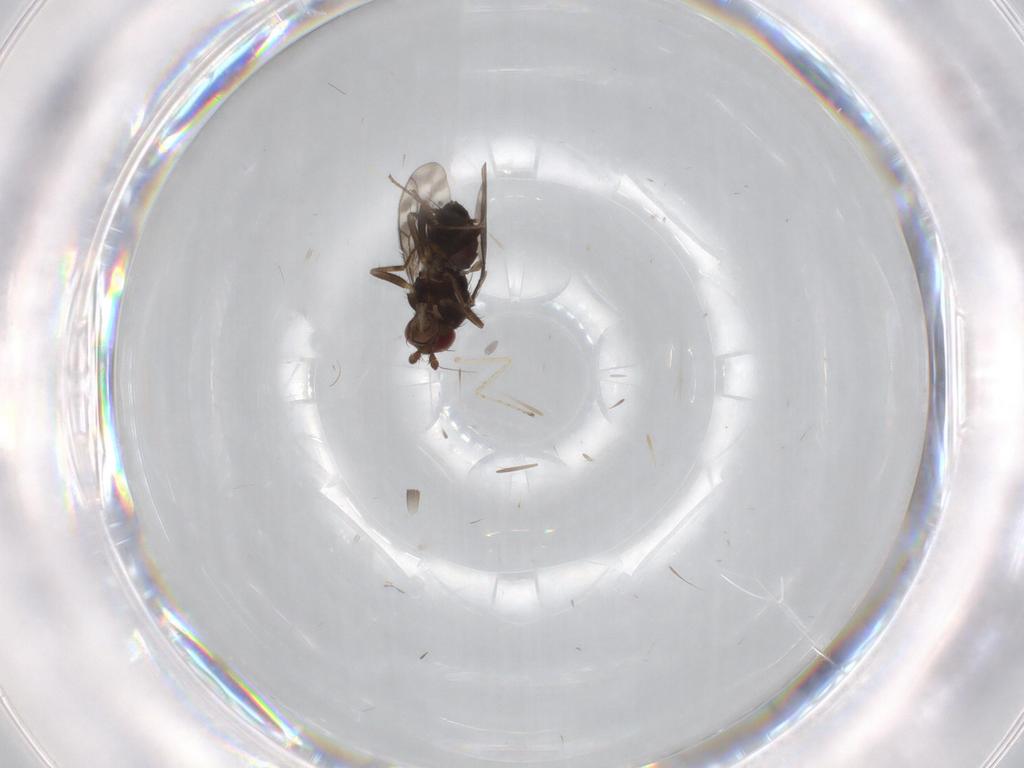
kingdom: Animalia
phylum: Arthropoda
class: Insecta
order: Diptera
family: Sphaeroceridae
